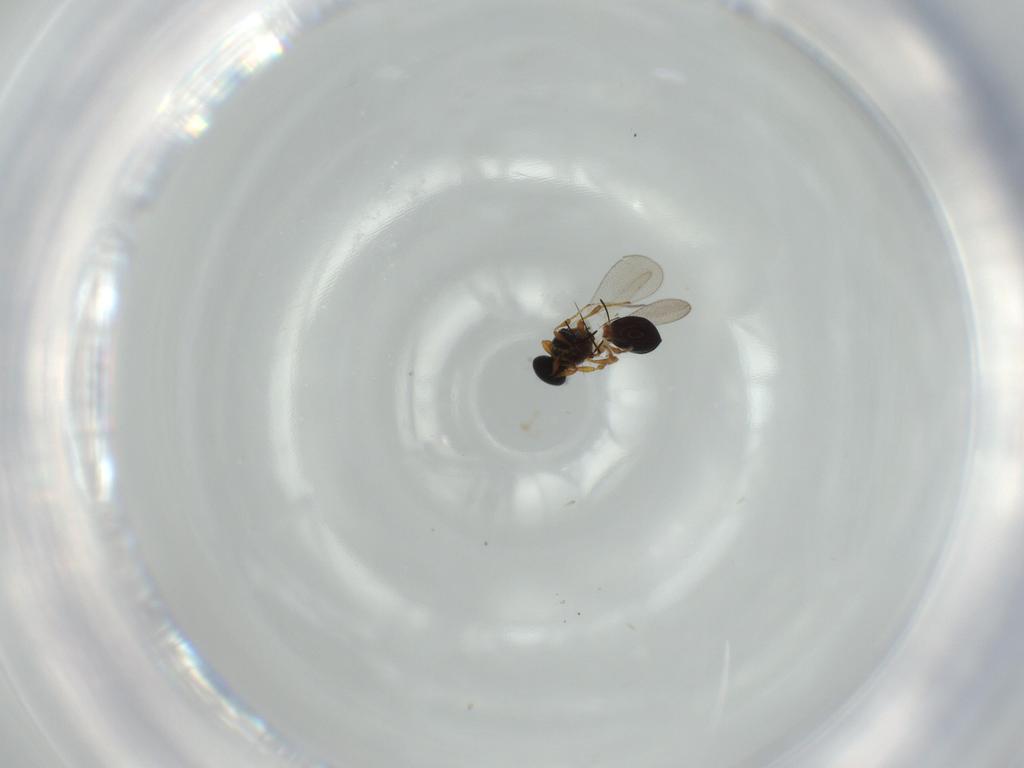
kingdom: Animalia
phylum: Arthropoda
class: Insecta
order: Hymenoptera
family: Platygastridae
